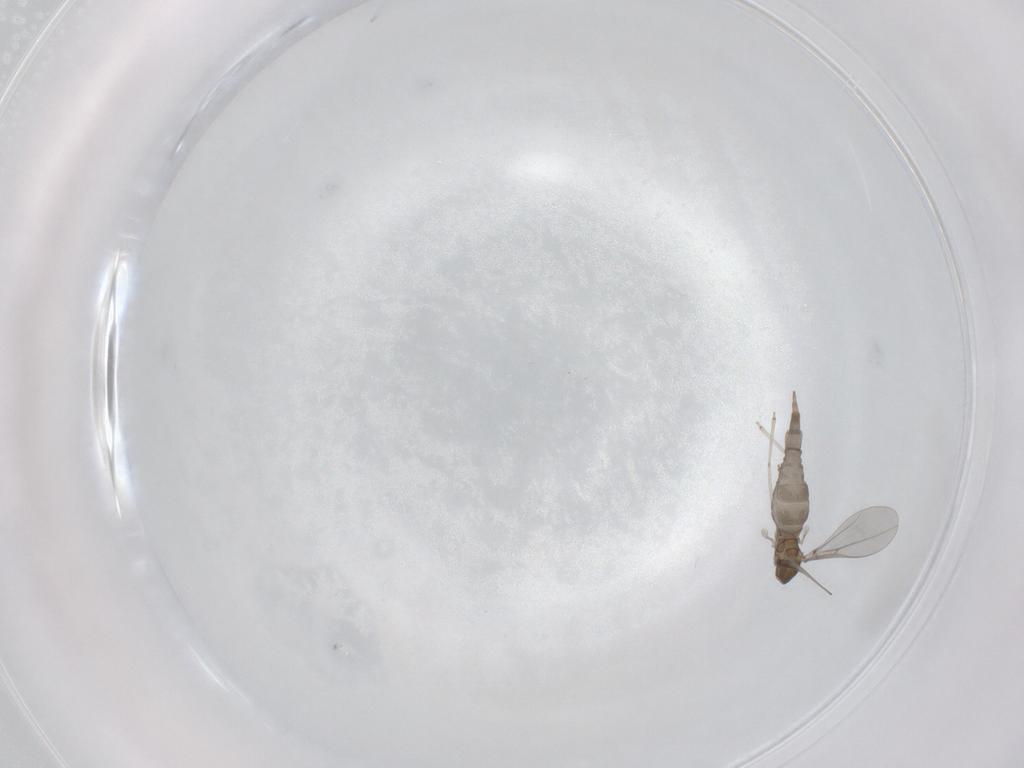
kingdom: Animalia
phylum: Arthropoda
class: Insecta
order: Diptera
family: Cecidomyiidae
